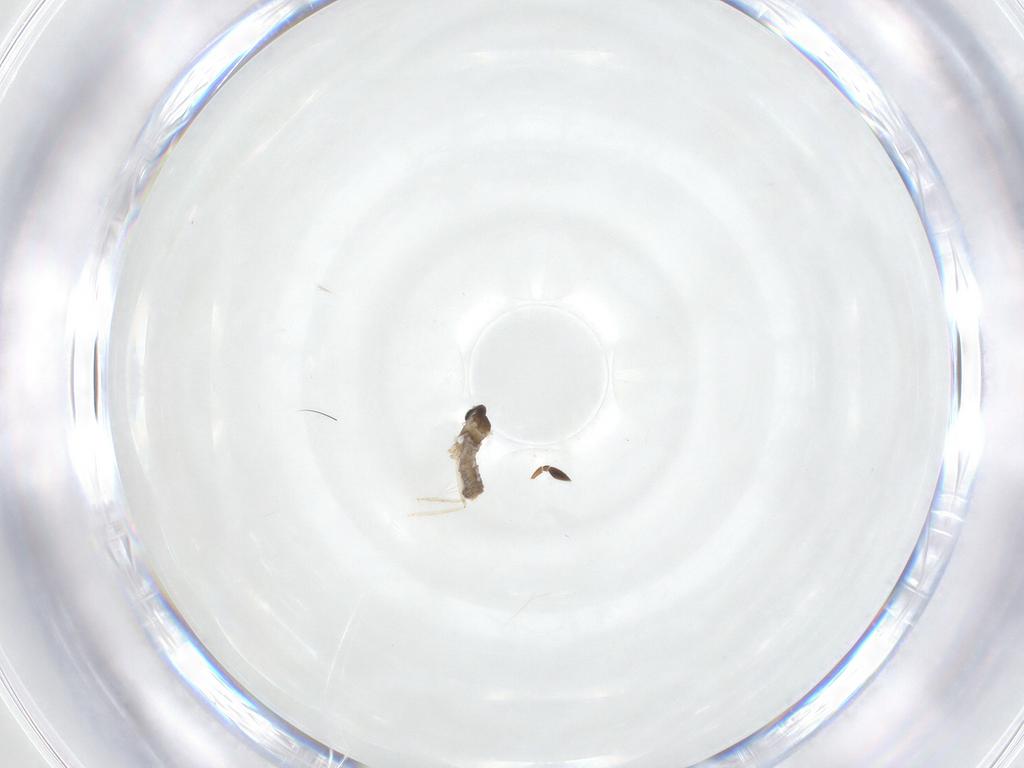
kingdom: Animalia
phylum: Arthropoda
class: Insecta
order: Diptera
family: Cecidomyiidae
